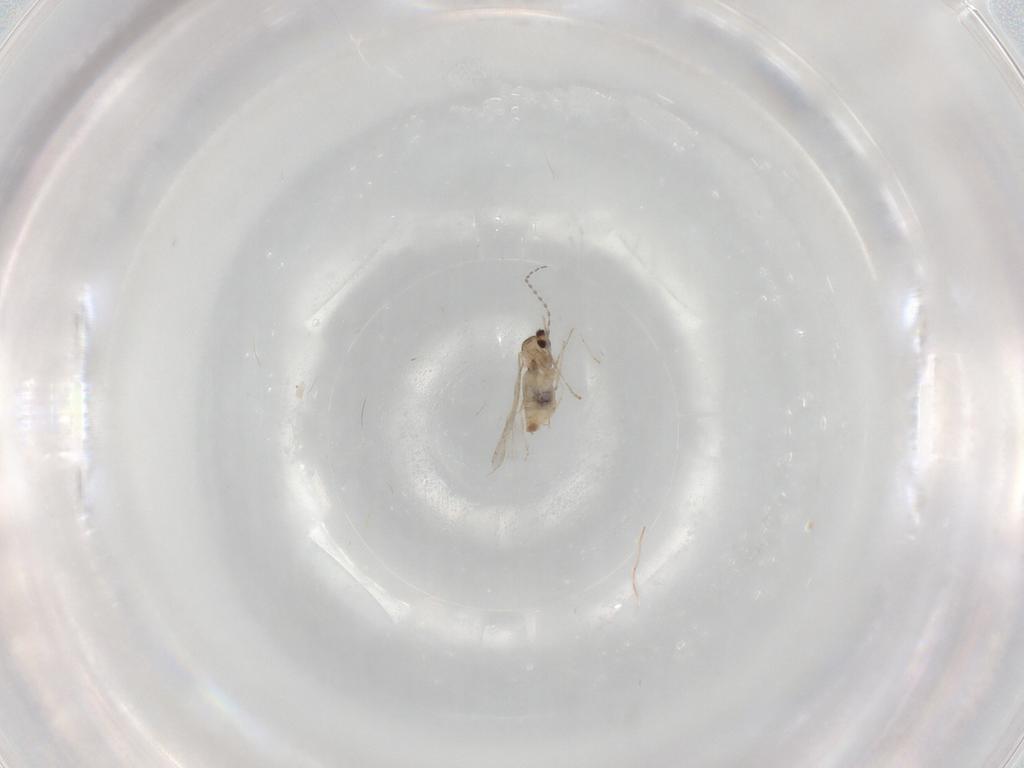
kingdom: Animalia
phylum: Arthropoda
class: Insecta
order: Diptera
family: Cecidomyiidae
